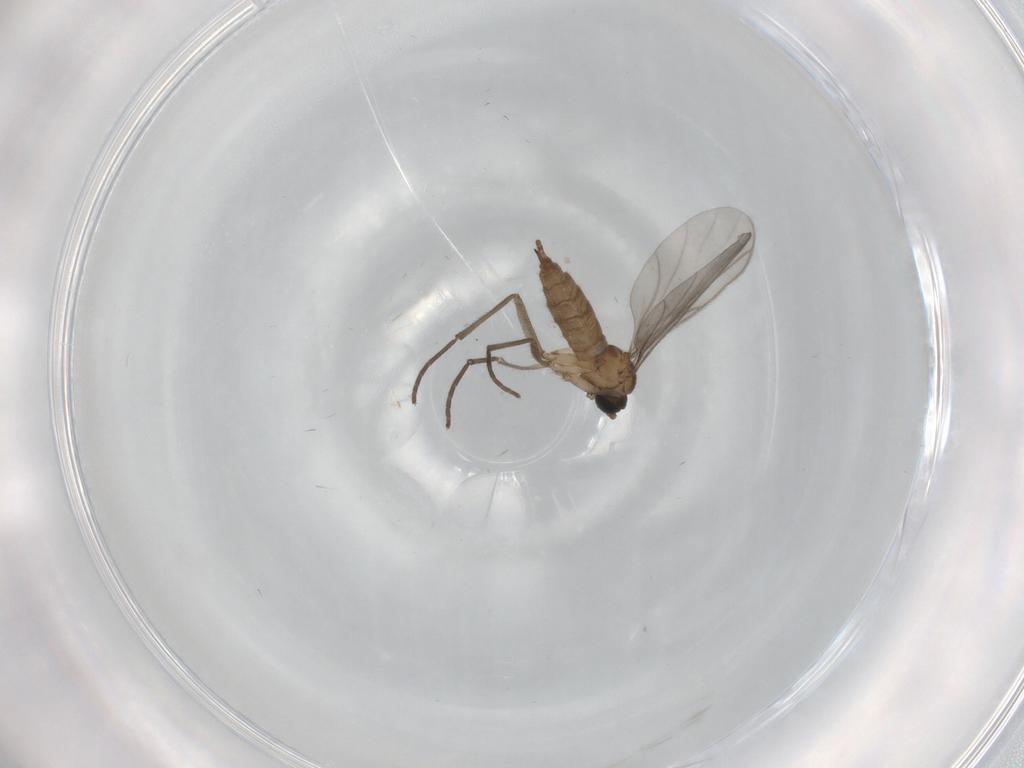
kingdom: Animalia
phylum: Arthropoda
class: Insecta
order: Diptera
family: Sciaridae
